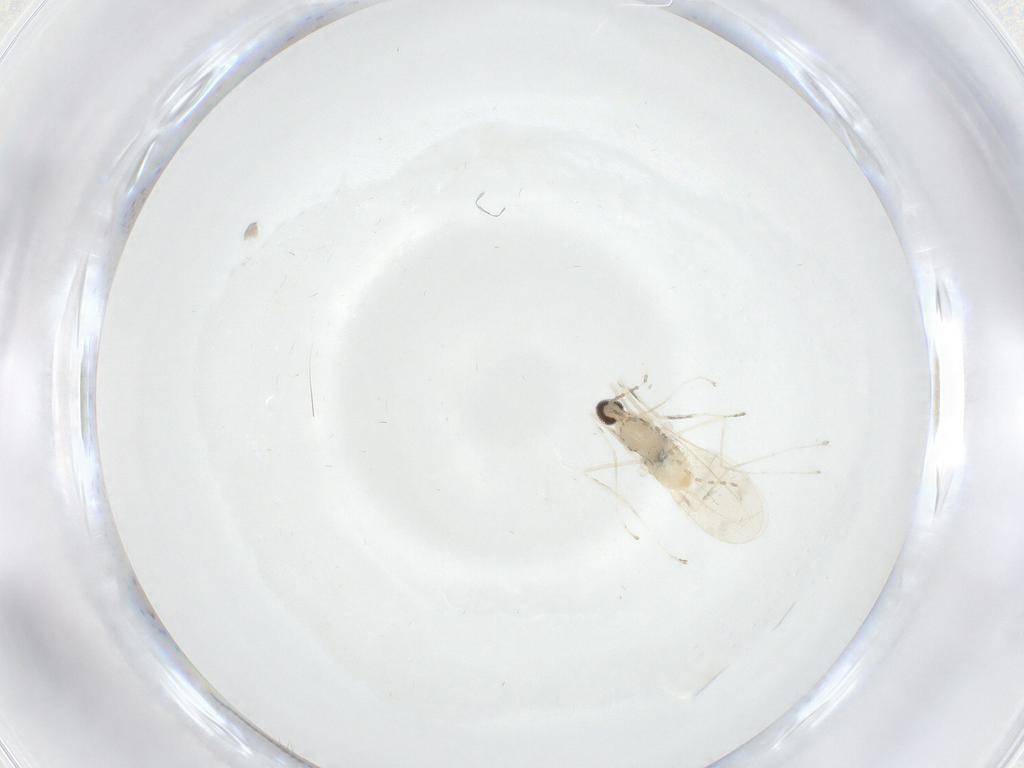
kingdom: Animalia
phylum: Arthropoda
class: Insecta
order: Diptera
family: Cecidomyiidae
